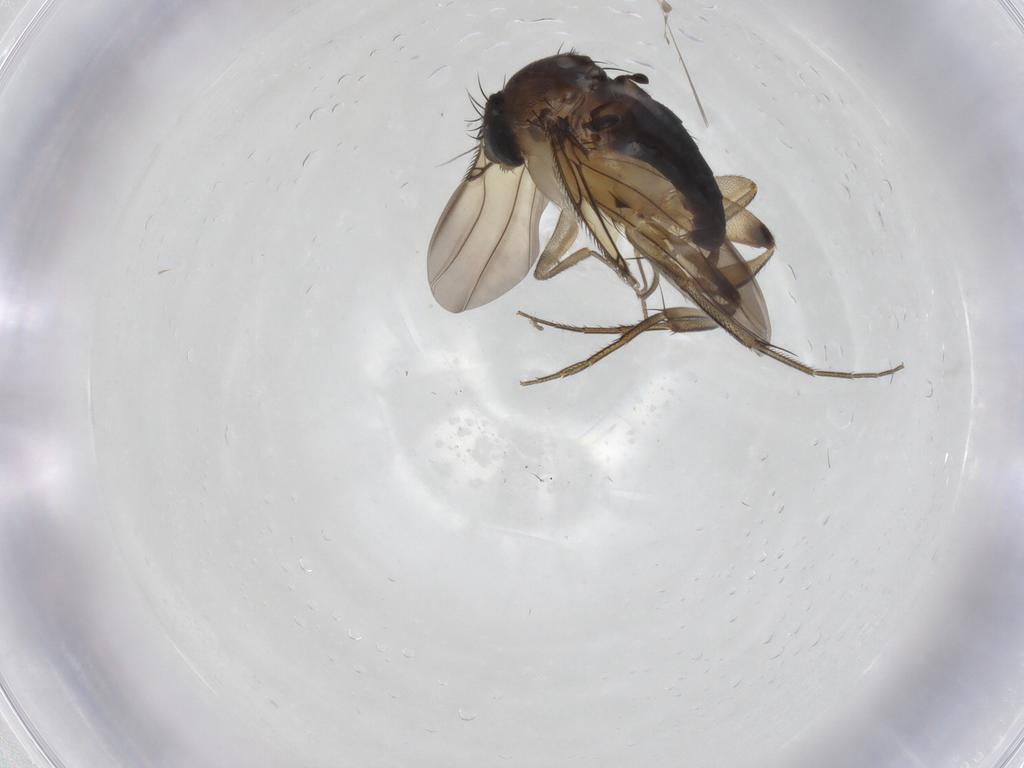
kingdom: Animalia
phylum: Arthropoda
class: Insecta
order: Diptera
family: Phoridae
